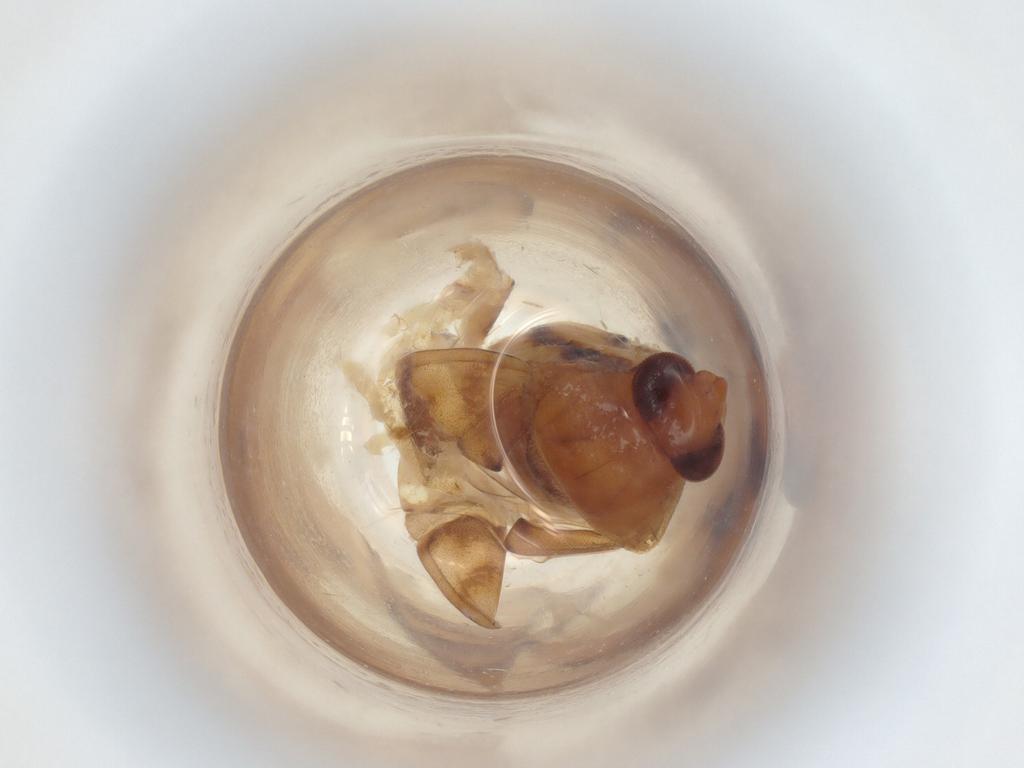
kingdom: Animalia
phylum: Arthropoda
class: Insecta
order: Hemiptera
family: Miridae
